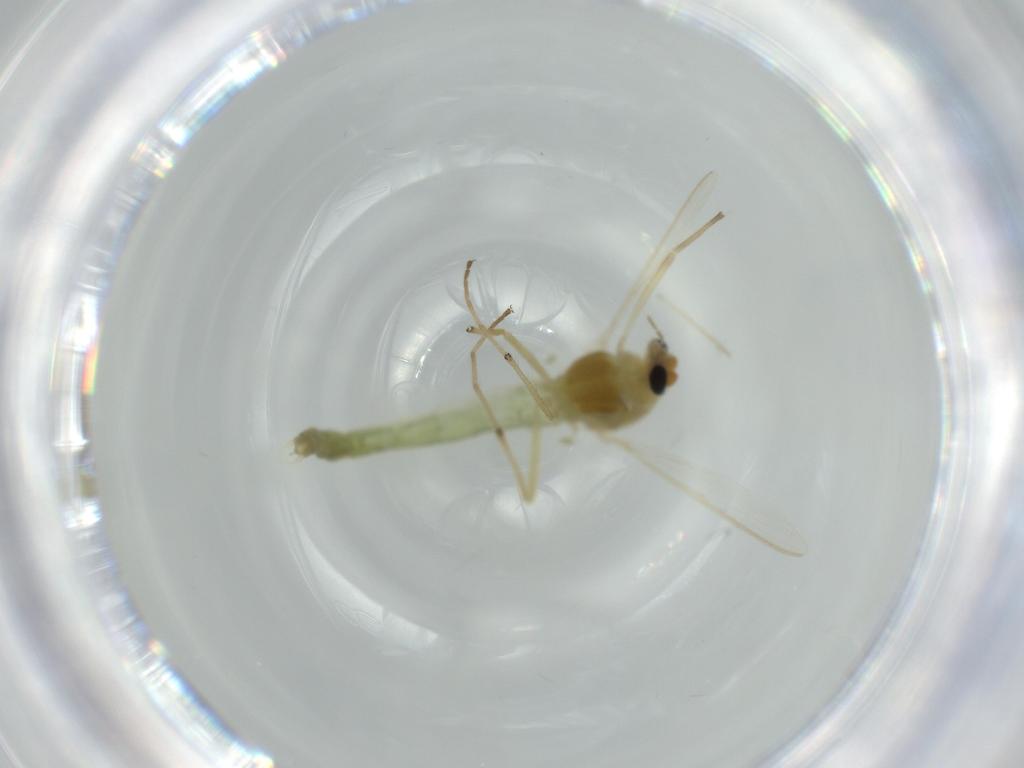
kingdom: Animalia
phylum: Arthropoda
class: Insecta
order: Diptera
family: Chironomidae
